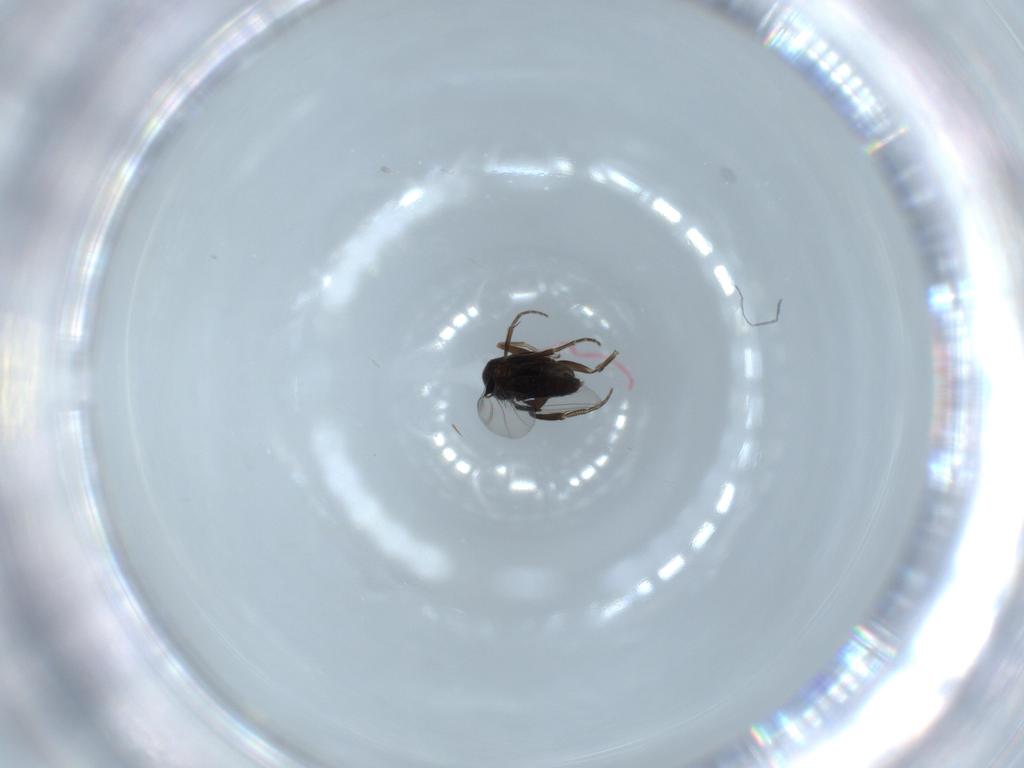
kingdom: Animalia
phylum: Arthropoda
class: Insecta
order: Diptera
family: Phoridae
